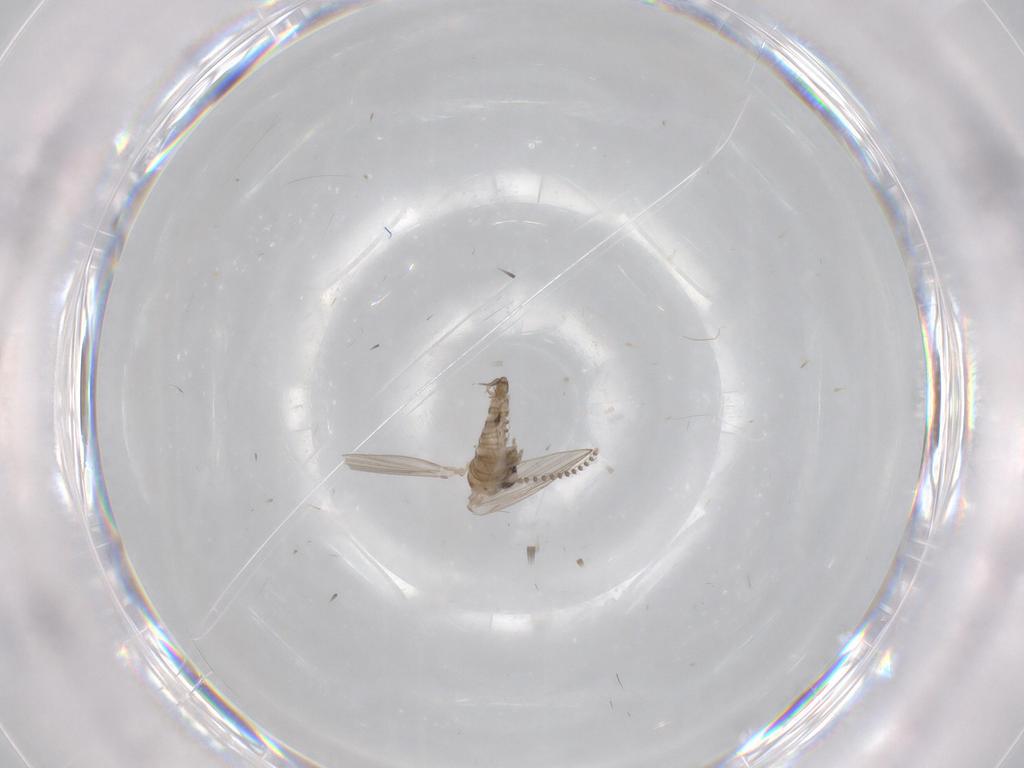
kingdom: Animalia
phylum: Arthropoda
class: Insecta
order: Diptera
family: Psychodidae
